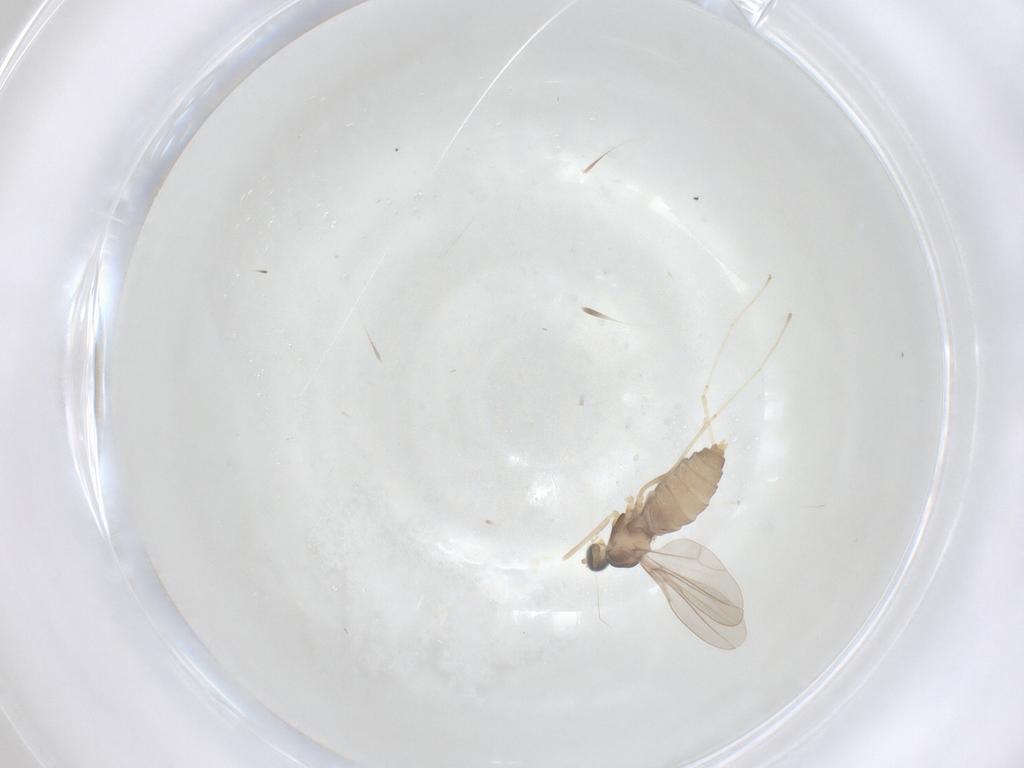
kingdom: Animalia
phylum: Arthropoda
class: Insecta
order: Diptera
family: Cecidomyiidae
